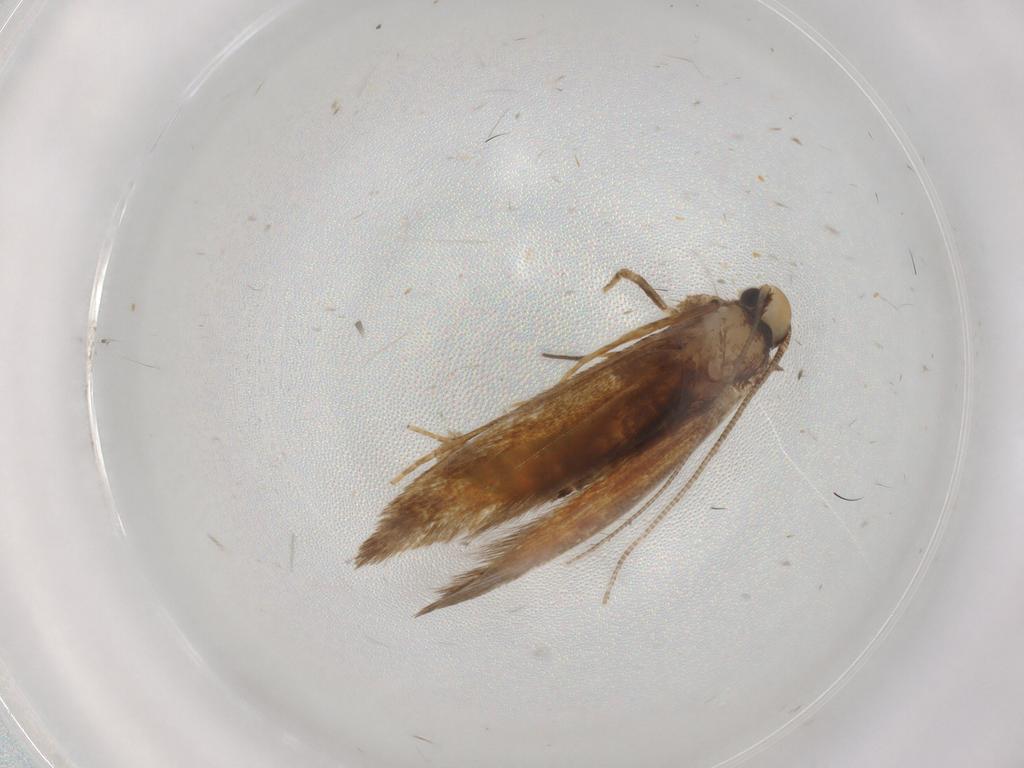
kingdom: Animalia
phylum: Arthropoda
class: Insecta
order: Lepidoptera
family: Tineidae
